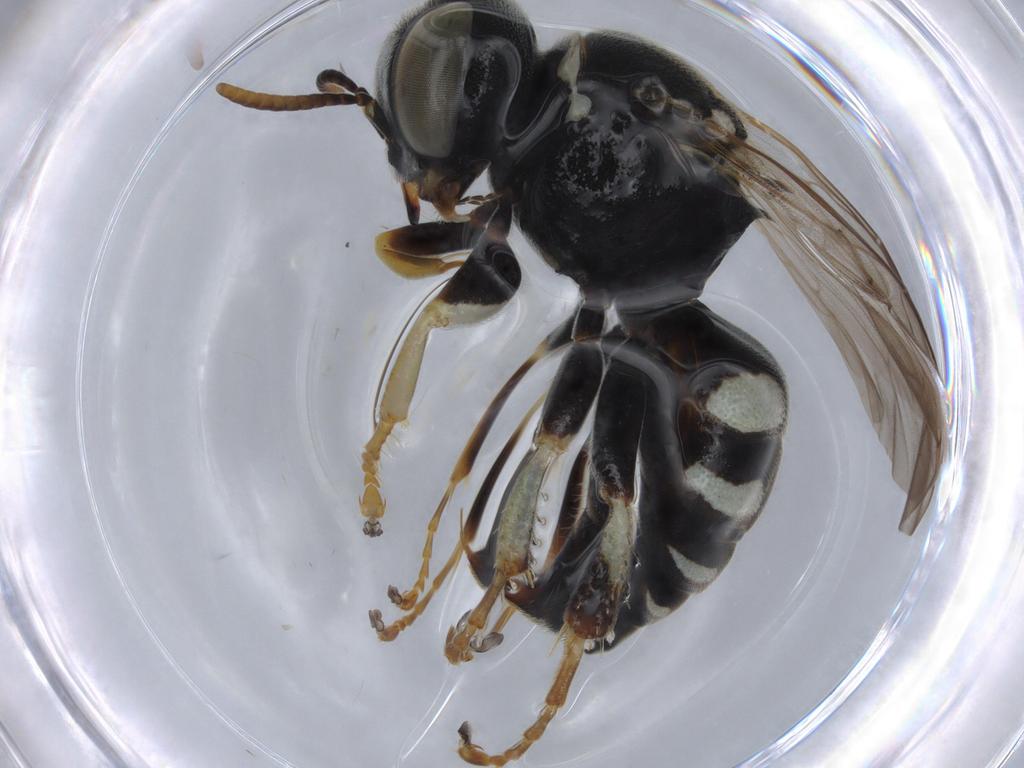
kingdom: Animalia
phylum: Arthropoda
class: Insecta
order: Hymenoptera
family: Crabronidae
